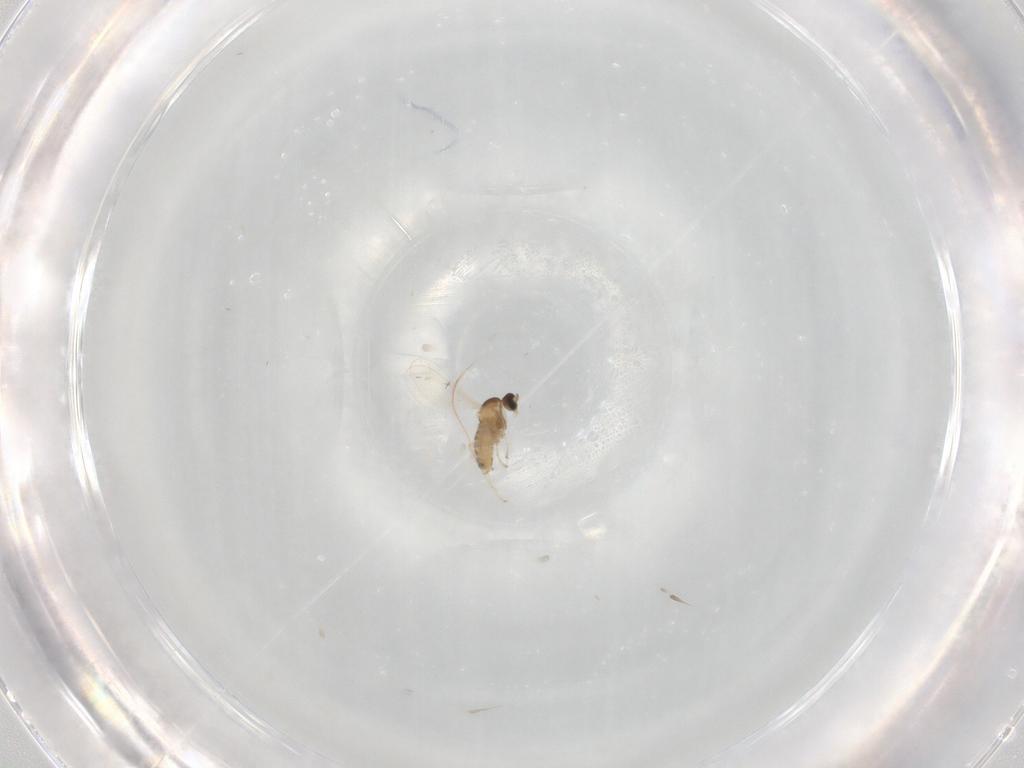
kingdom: Animalia
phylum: Arthropoda
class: Insecta
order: Diptera
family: Cecidomyiidae
